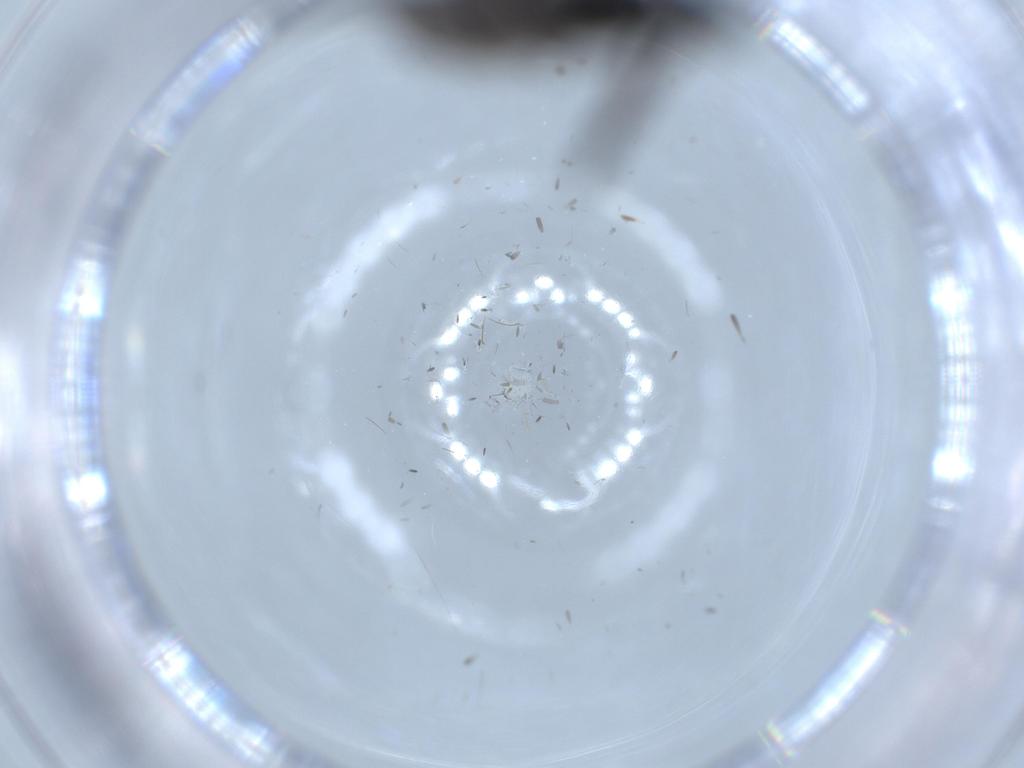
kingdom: Animalia
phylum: Arthropoda
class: Insecta
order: Diptera
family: Sciaridae
